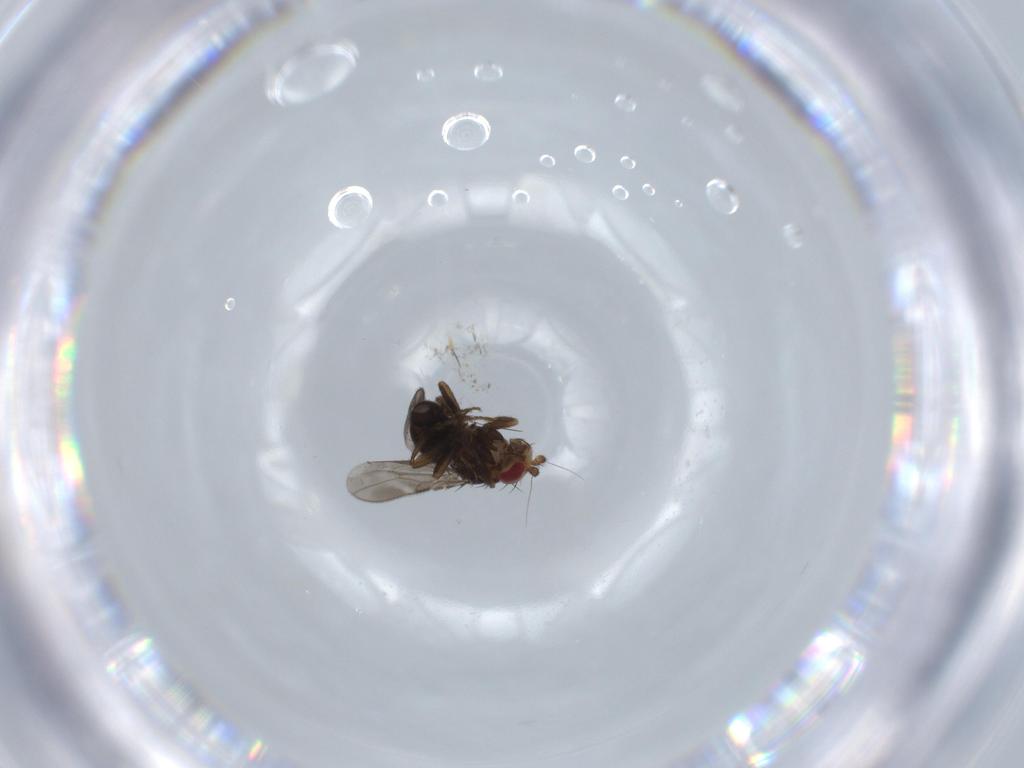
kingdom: Animalia
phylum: Arthropoda
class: Insecta
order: Diptera
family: Sphaeroceridae
